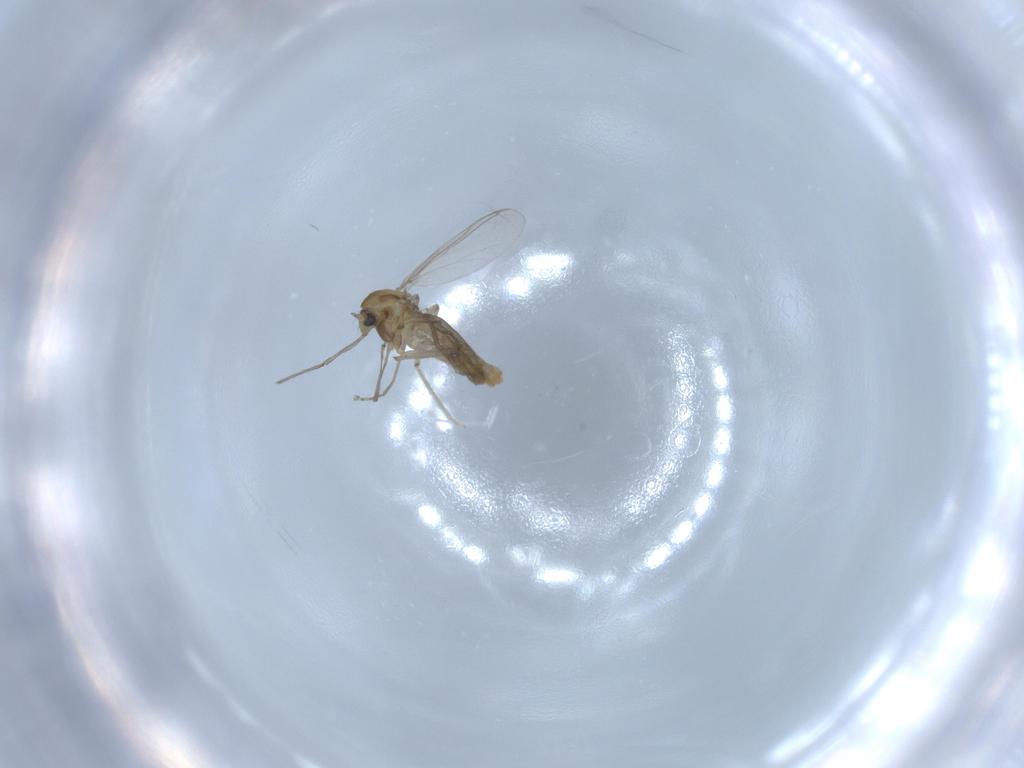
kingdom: Animalia
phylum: Arthropoda
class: Insecta
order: Diptera
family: Chironomidae
